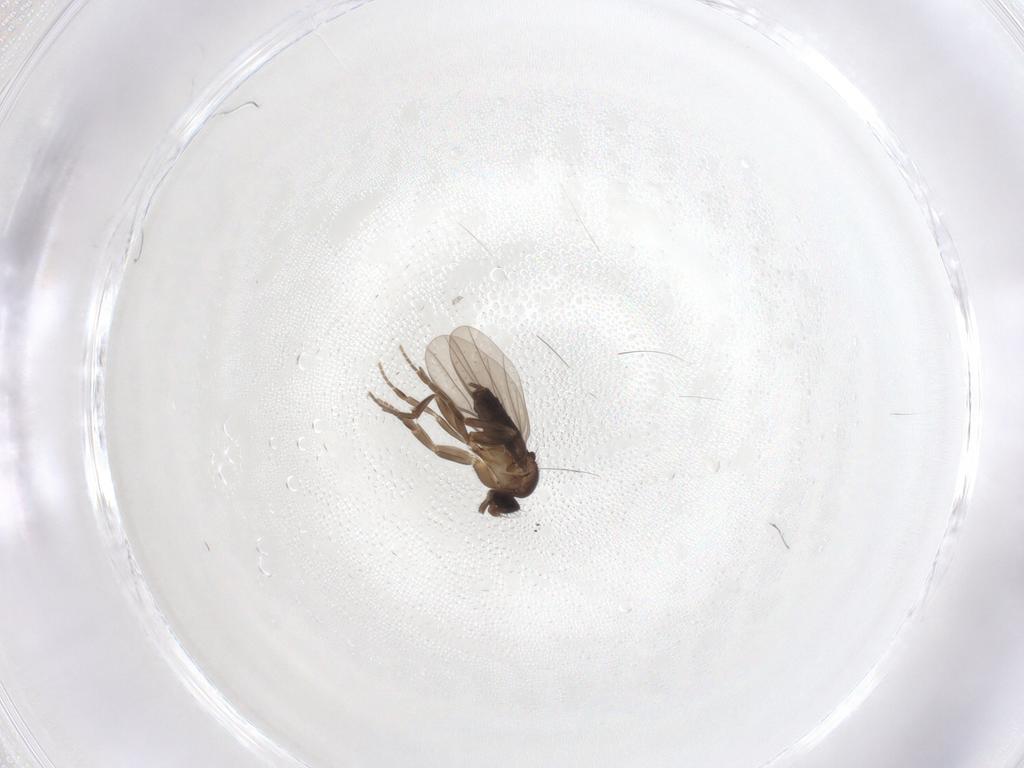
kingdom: Animalia
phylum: Arthropoda
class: Insecta
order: Diptera
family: Phoridae
